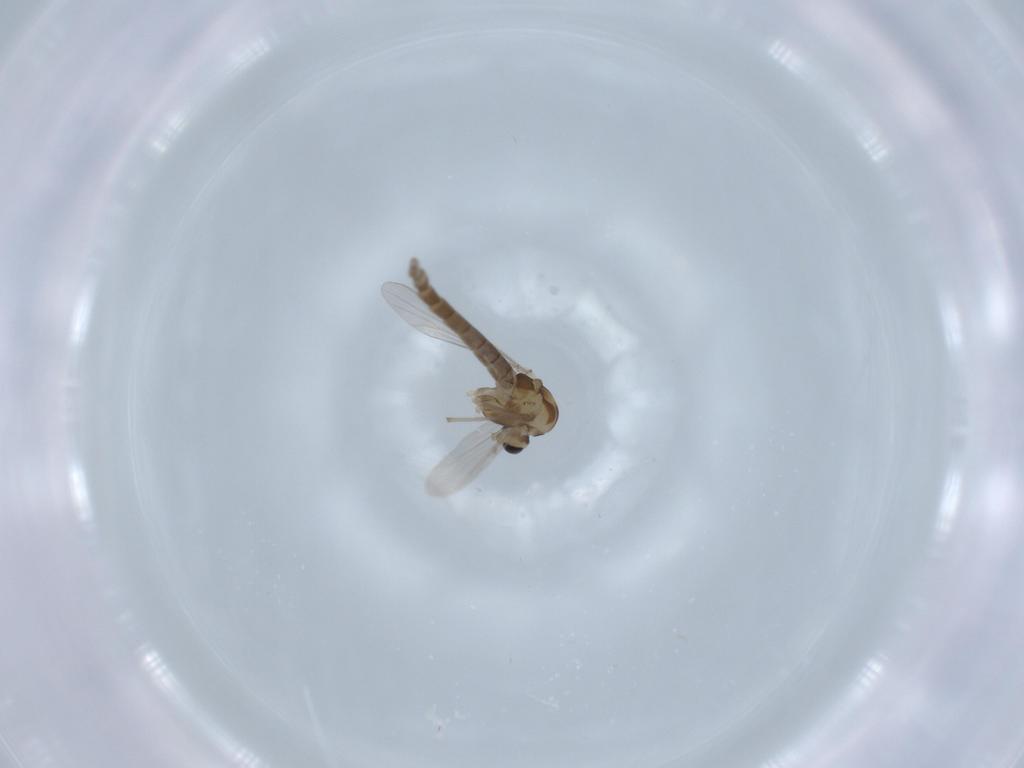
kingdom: Animalia
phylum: Arthropoda
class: Insecta
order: Diptera
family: Chironomidae
